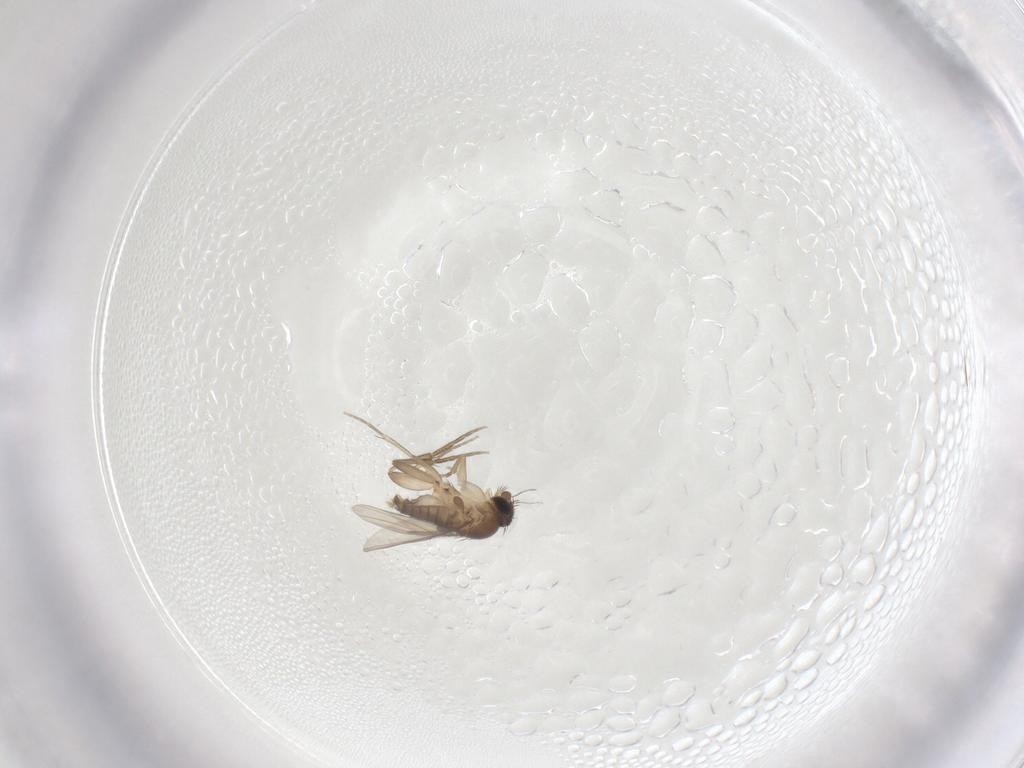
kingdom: Animalia
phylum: Arthropoda
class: Insecta
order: Diptera
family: Phoridae
